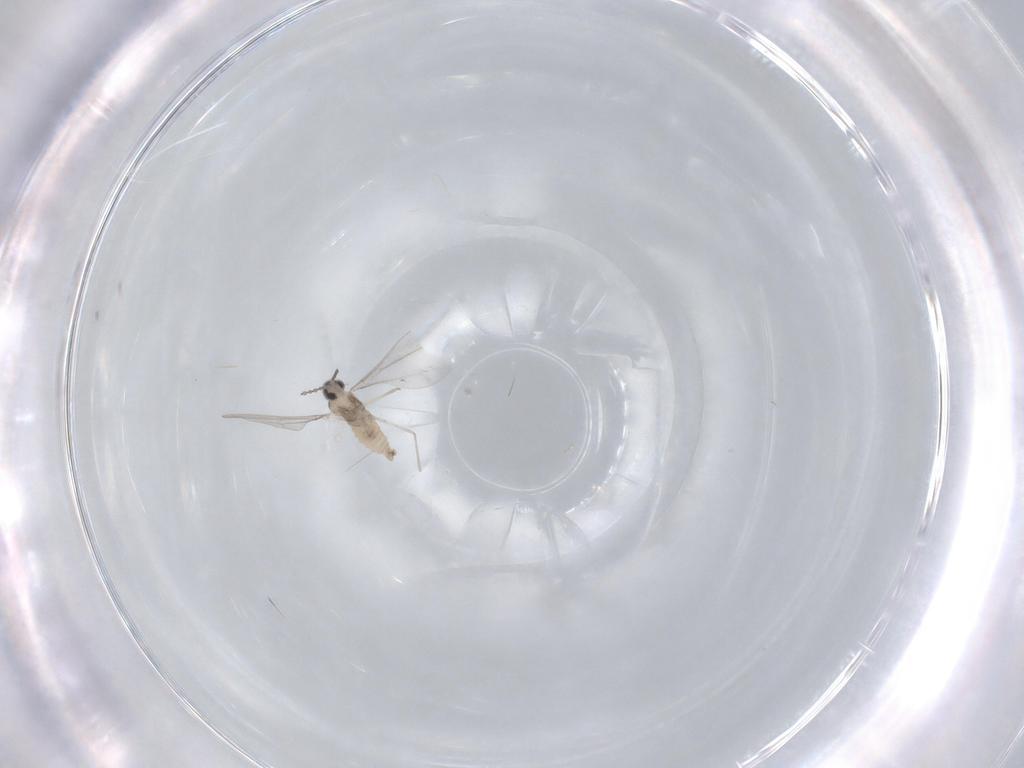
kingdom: Animalia
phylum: Arthropoda
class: Insecta
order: Diptera
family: Cecidomyiidae
